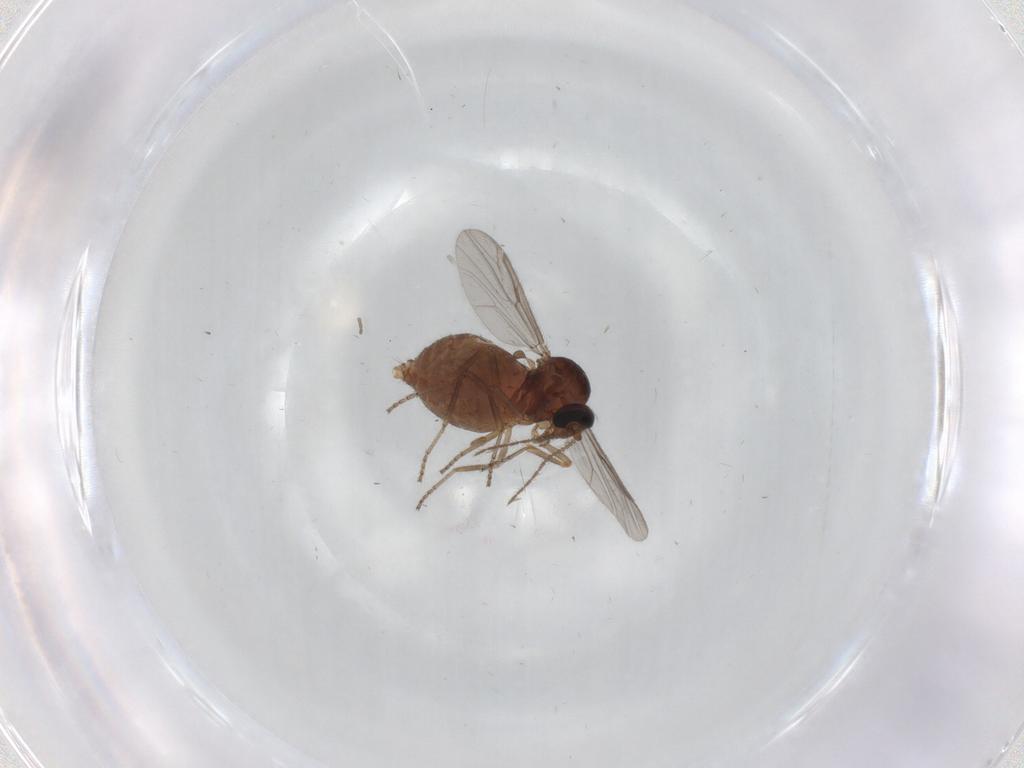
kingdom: Animalia
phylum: Arthropoda
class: Insecta
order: Diptera
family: Ceratopogonidae
